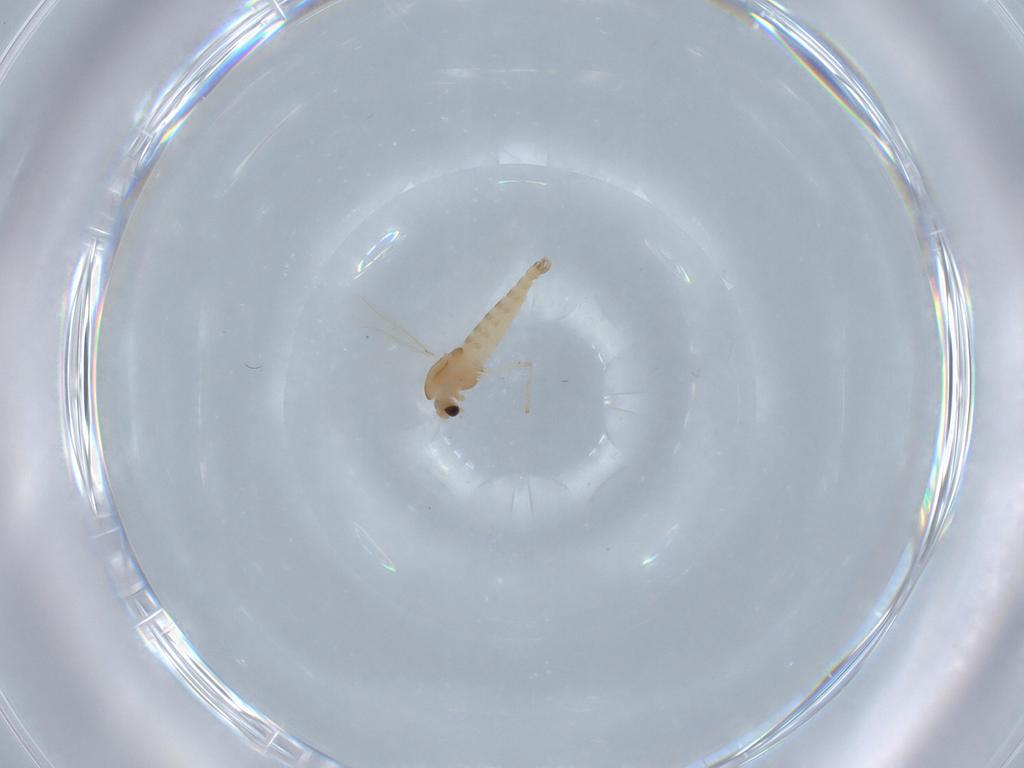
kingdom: Animalia
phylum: Arthropoda
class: Insecta
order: Diptera
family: Chironomidae
